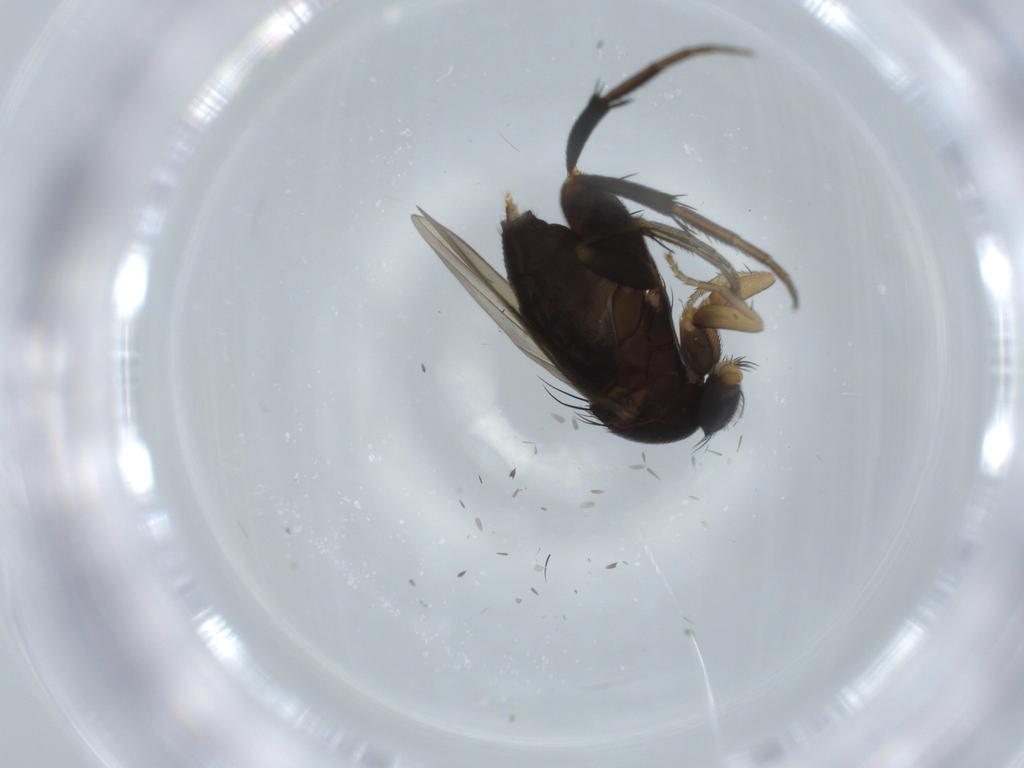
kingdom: Animalia
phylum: Arthropoda
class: Insecta
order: Diptera
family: Phoridae
